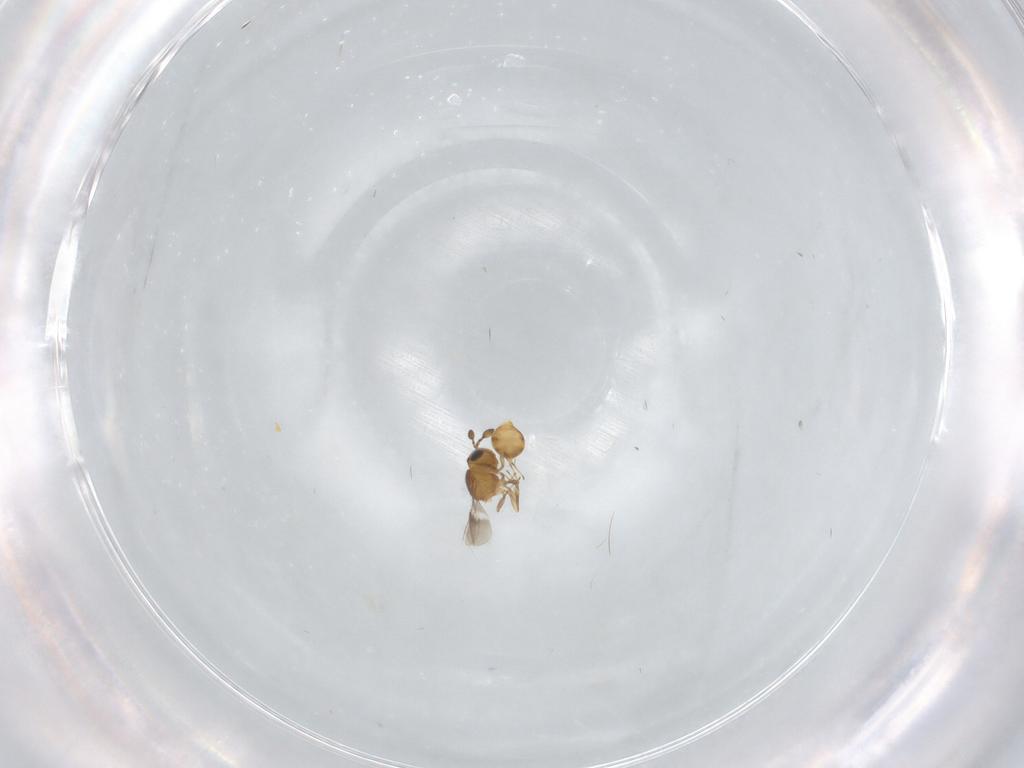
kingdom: Animalia
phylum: Arthropoda
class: Insecta
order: Hymenoptera
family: Scelionidae
